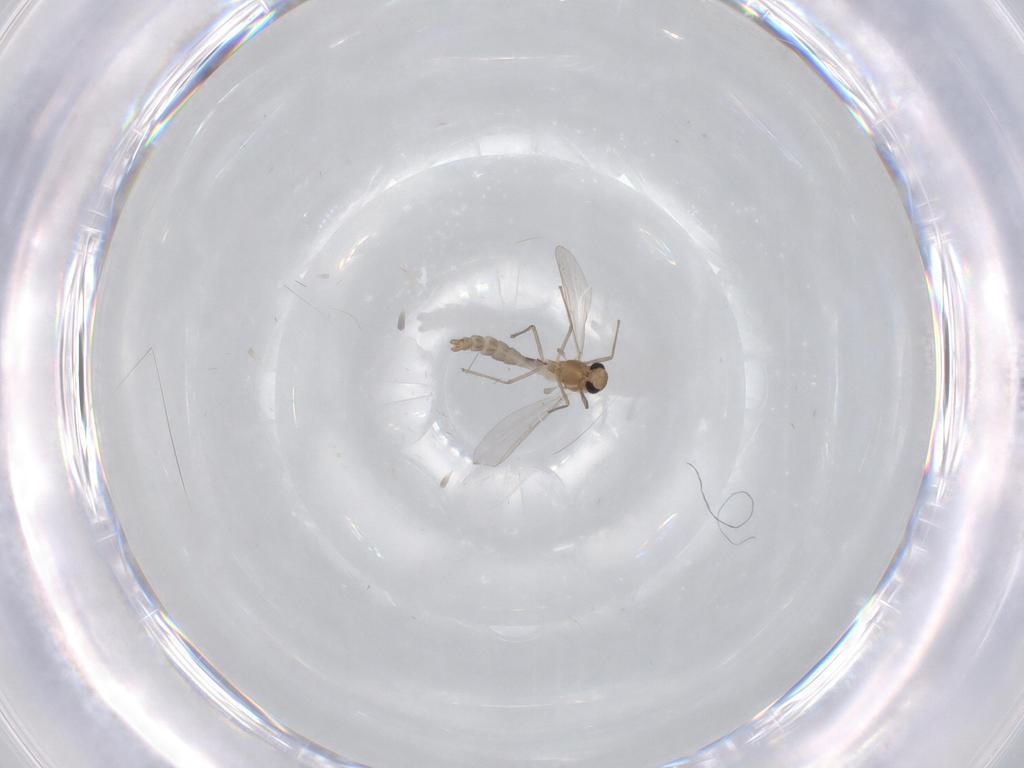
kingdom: Animalia
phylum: Arthropoda
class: Insecta
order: Diptera
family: Chironomidae
